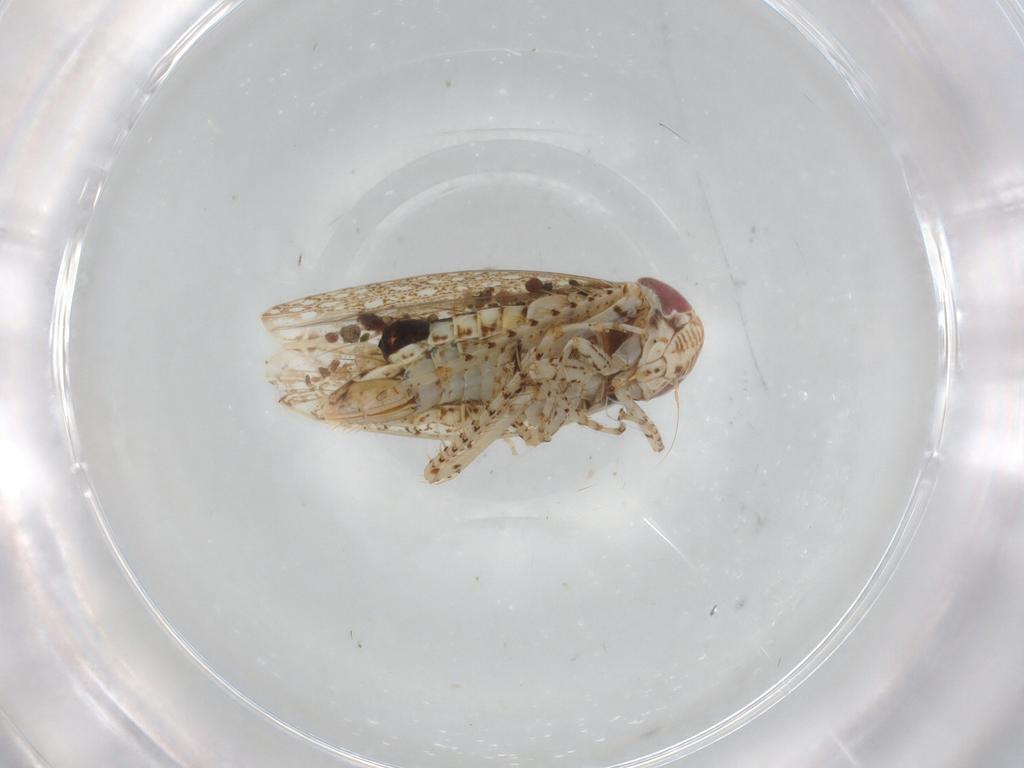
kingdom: Animalia
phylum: Arthropoda
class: Insecta
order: Hemiptera
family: Cicadellidae
